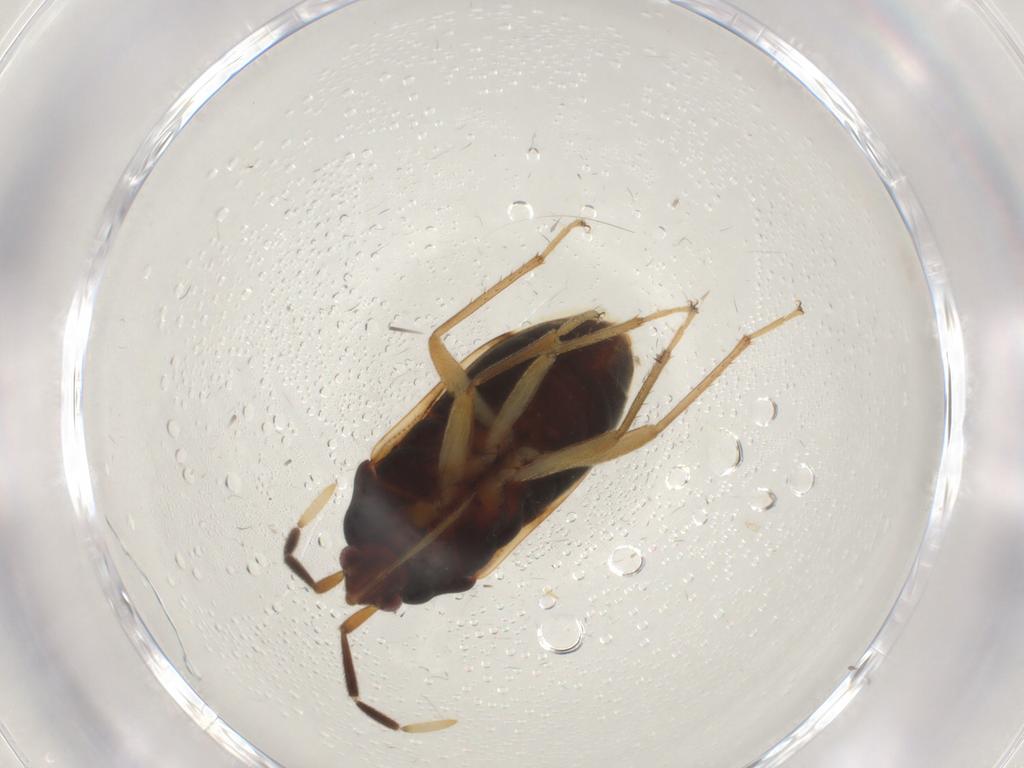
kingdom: Animalia
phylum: Arthropoda
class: Insecta
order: Hemiptera
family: Rhyparochromidae
